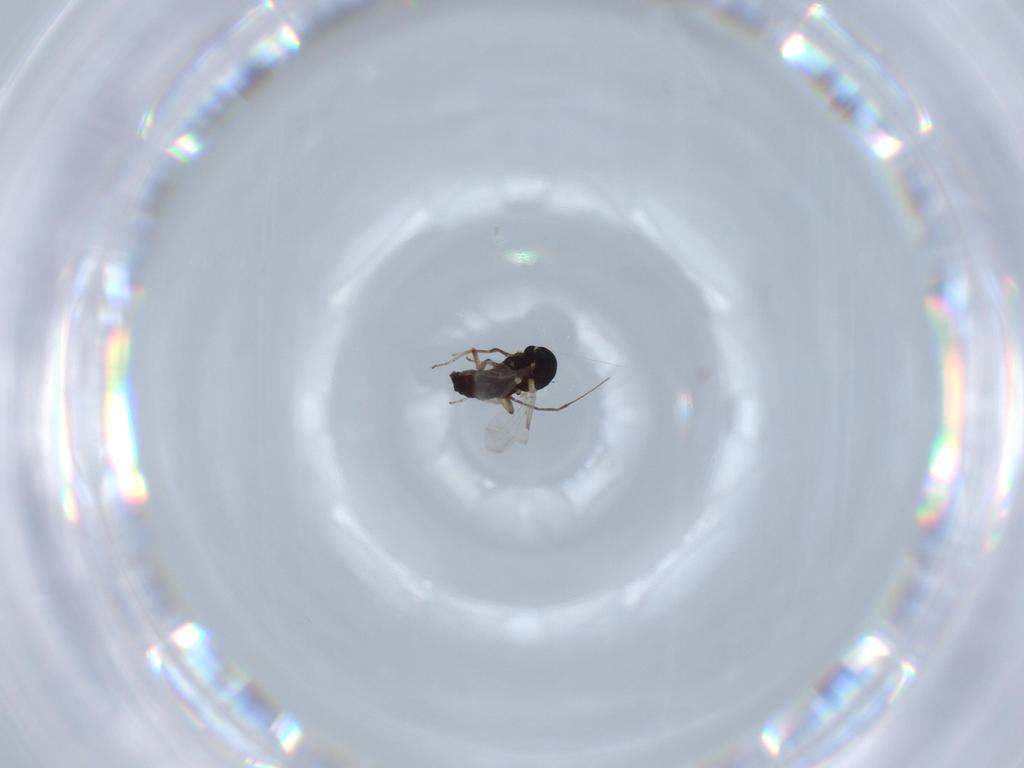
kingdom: Animalia
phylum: Arthropoda
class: Insecta
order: Diptera
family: Ceratopogonidae
